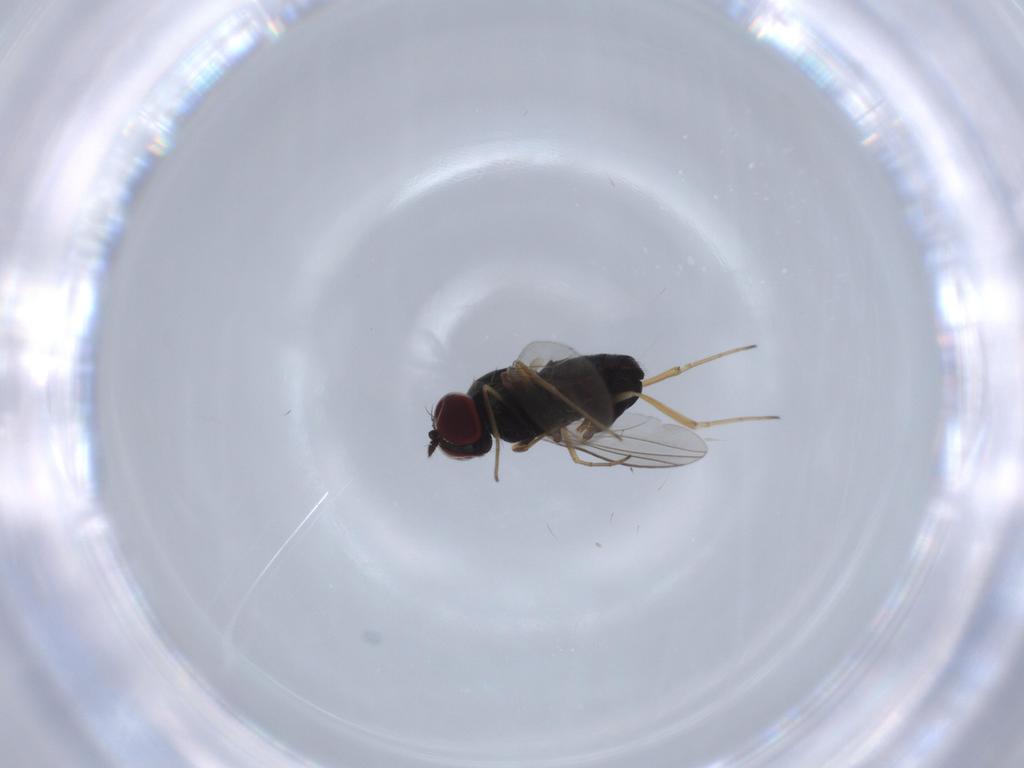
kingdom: Animalia
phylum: Arthropoda
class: Insecta
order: Diptera
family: Dolichopodidae
